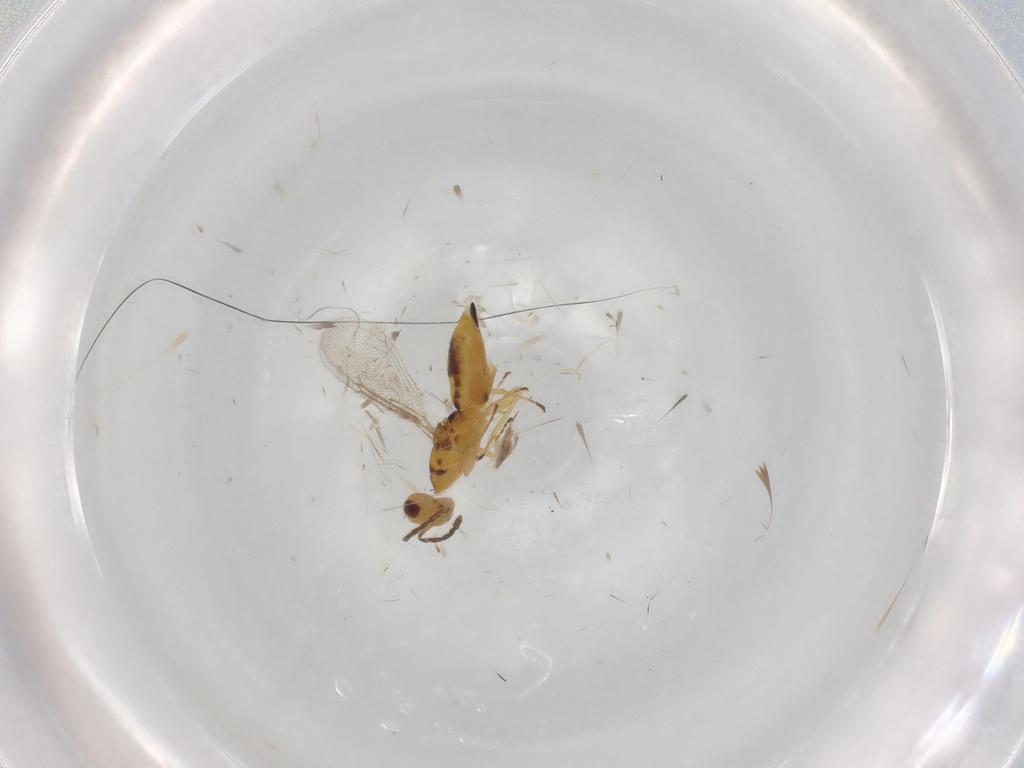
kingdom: Animalia
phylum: Arthropoda
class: Insecta
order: Hymenoptera
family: Eulophidae
